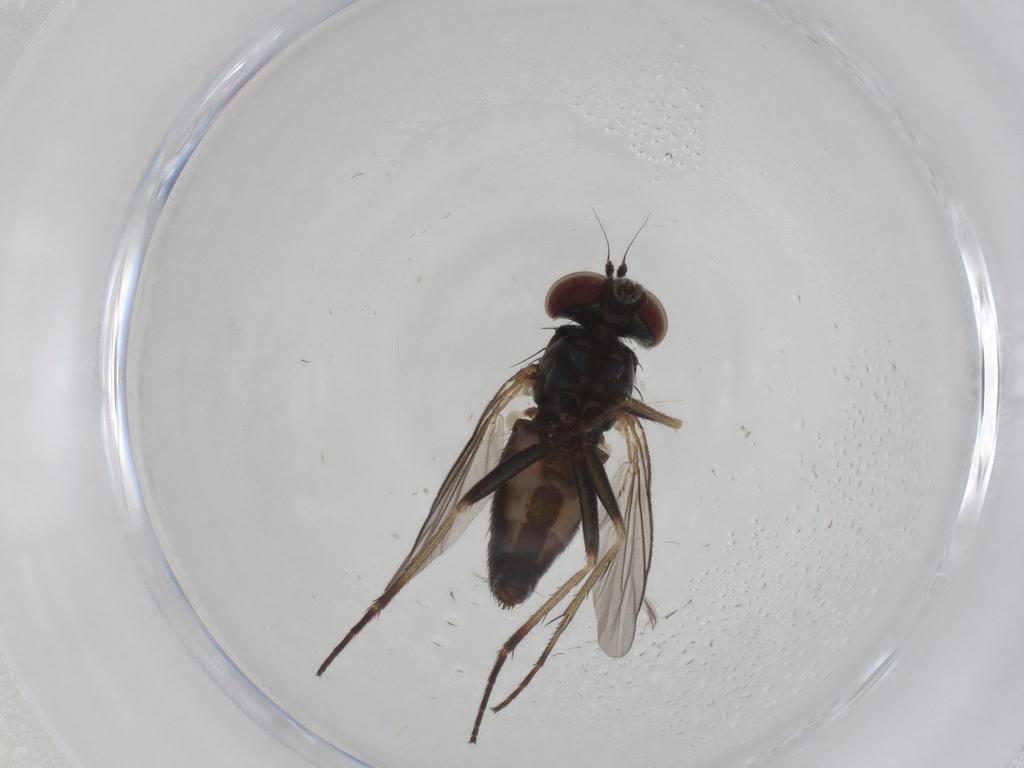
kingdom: Animalia
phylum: Arthropoda
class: Insecta
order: Diptera
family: Dolichopodidae
